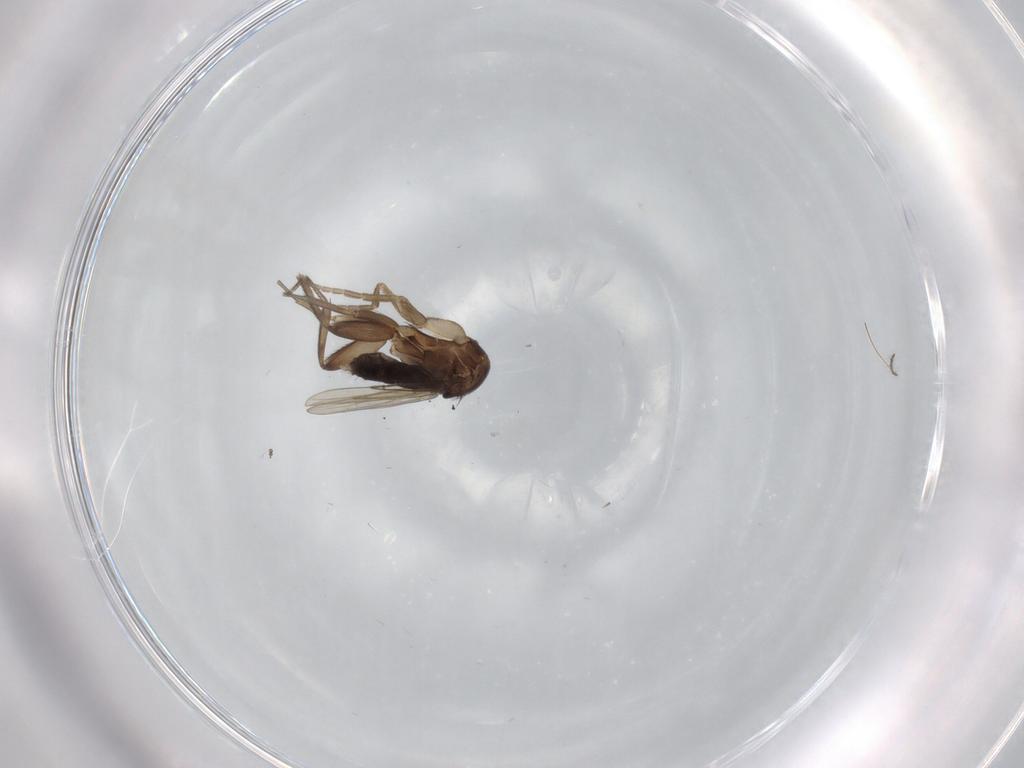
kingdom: Animalia
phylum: Arthropoda
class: Insecta
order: Diptera
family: Phoridae
